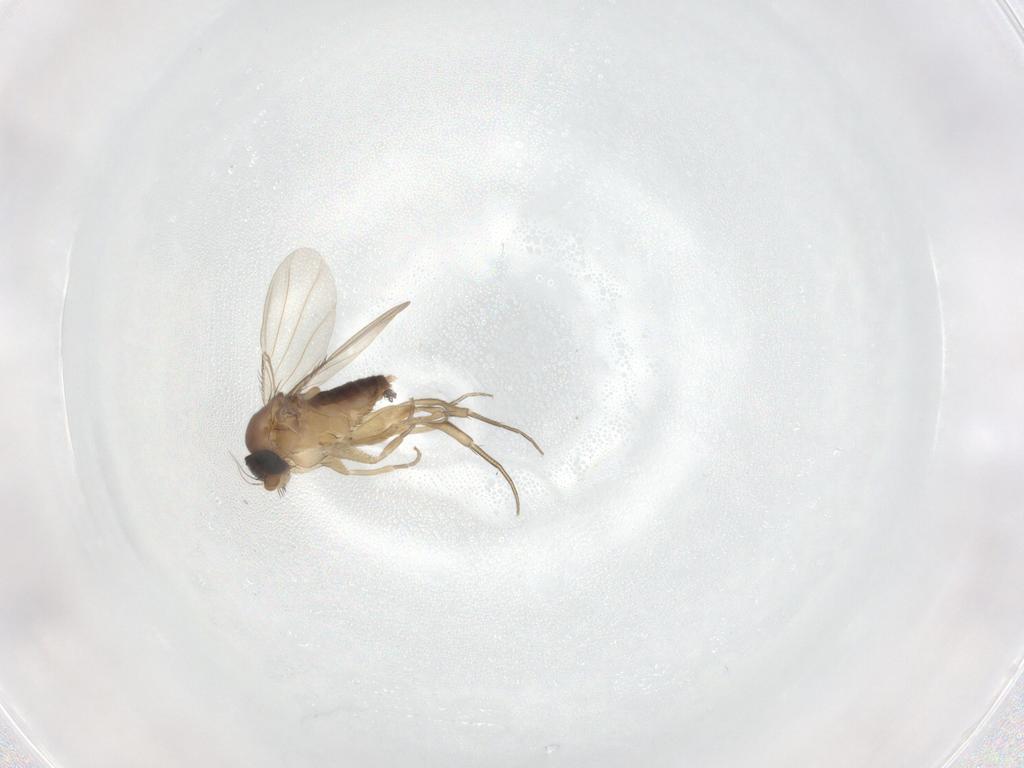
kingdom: Animalia
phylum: Arthropoda
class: Insecta
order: Diptera
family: Phoridae
